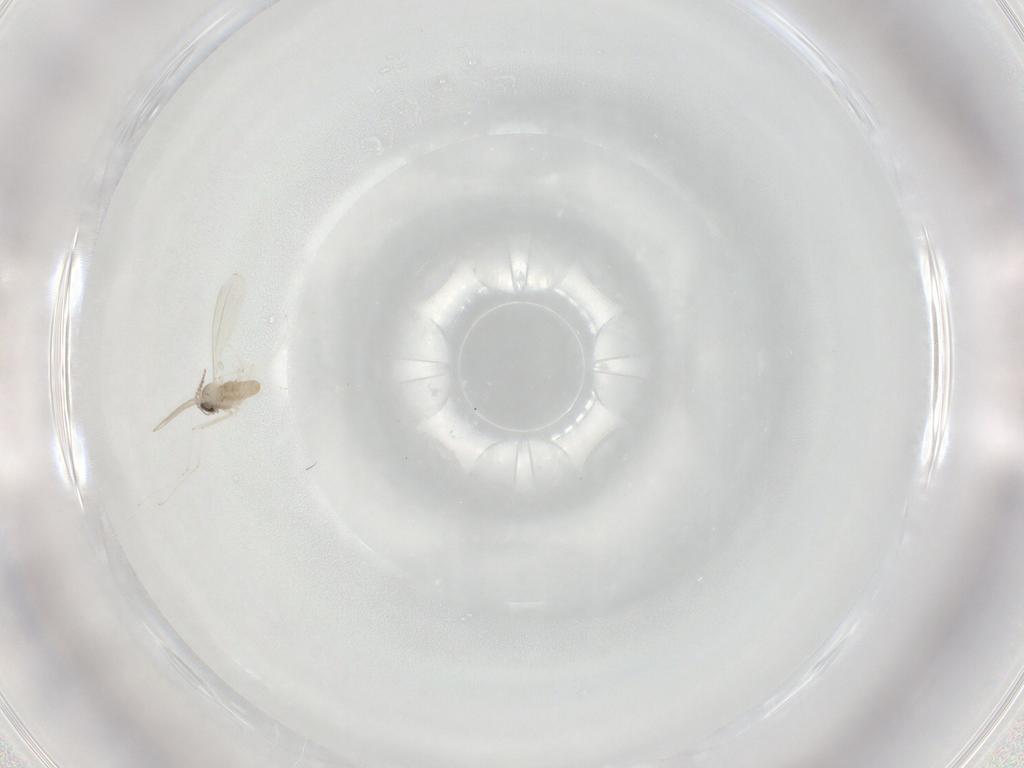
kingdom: Animalia
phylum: Arthropoda
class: Insecta
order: Diptera
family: Cecidomyiidae
